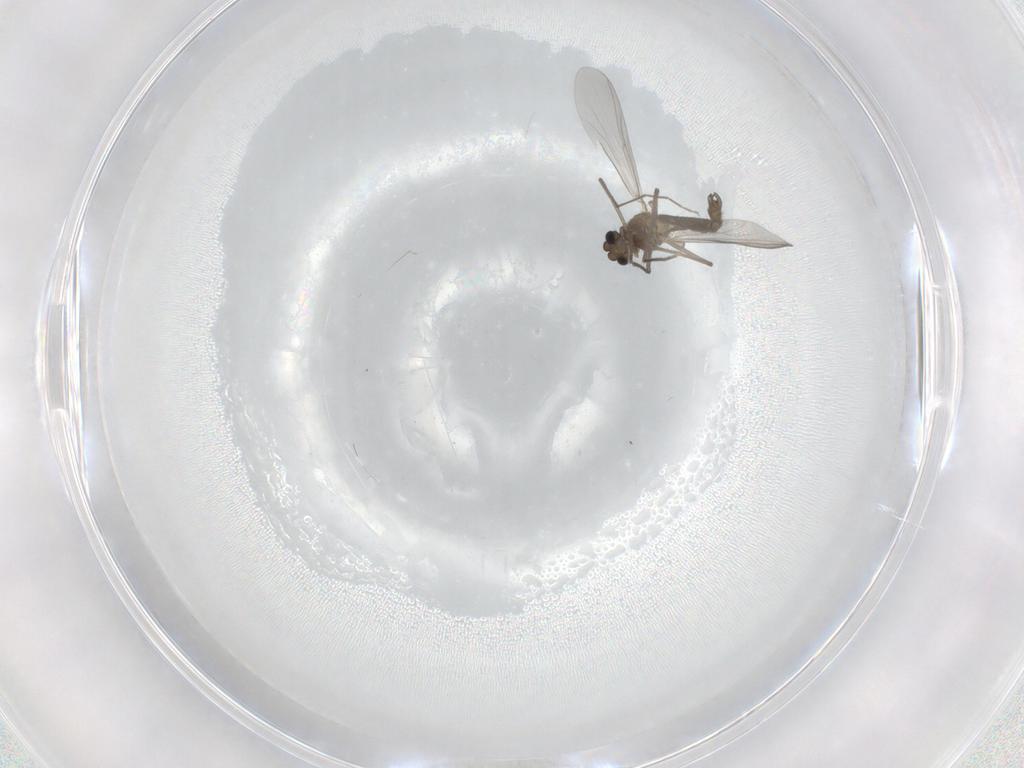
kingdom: Animalia
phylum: Arthropoda
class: Insecta
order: Diptera
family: Chironomidae
